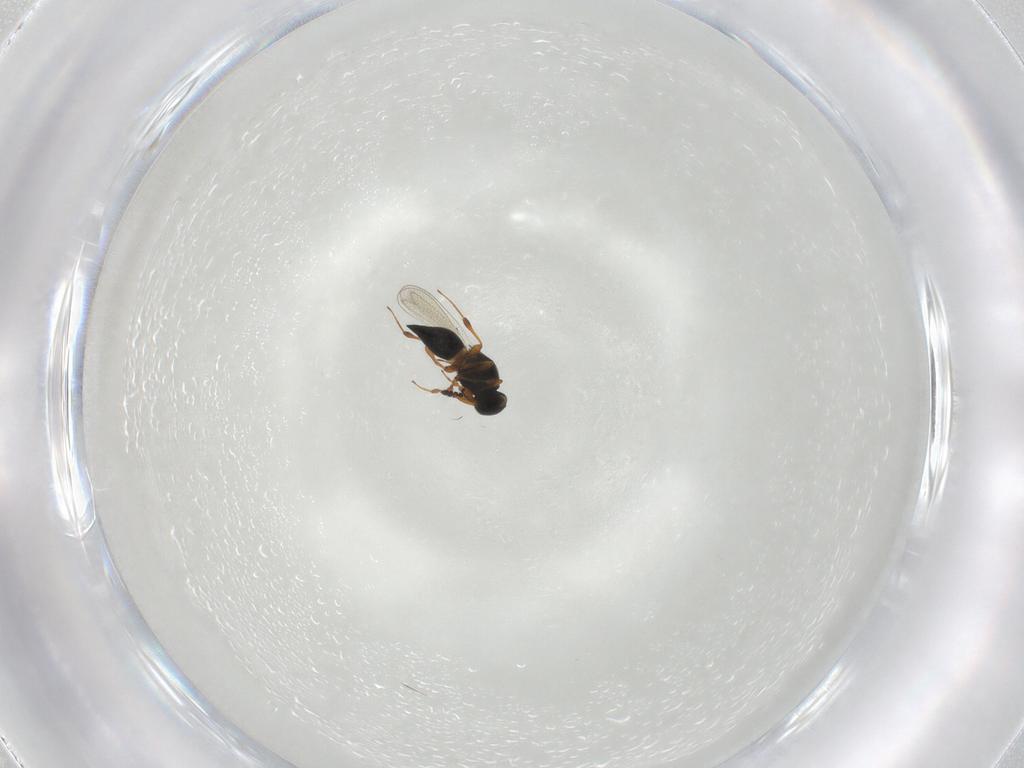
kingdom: Animalia
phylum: Arthropoda
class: Insecta
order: Hymenoptera
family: Platygastridae
